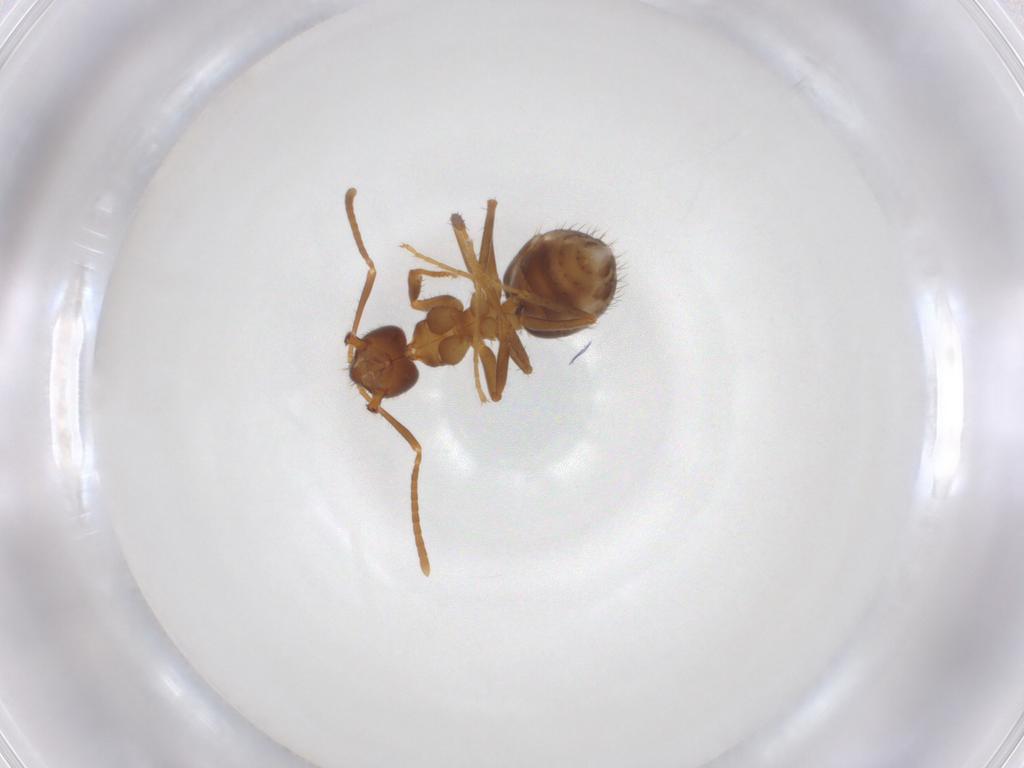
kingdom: Animalia
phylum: Arthropoda
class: Insecta
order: Hymenoptera
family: Formicidae
